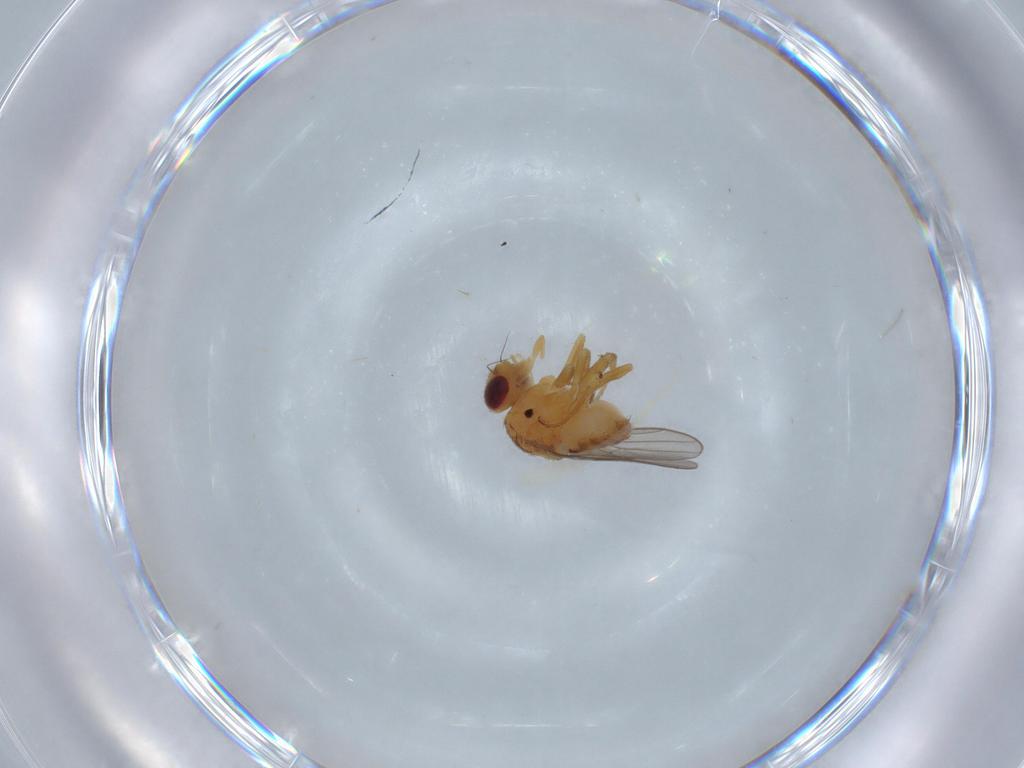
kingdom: Animalia
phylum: Arthropoda
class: Insecta
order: Diptera
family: Chloropidae
